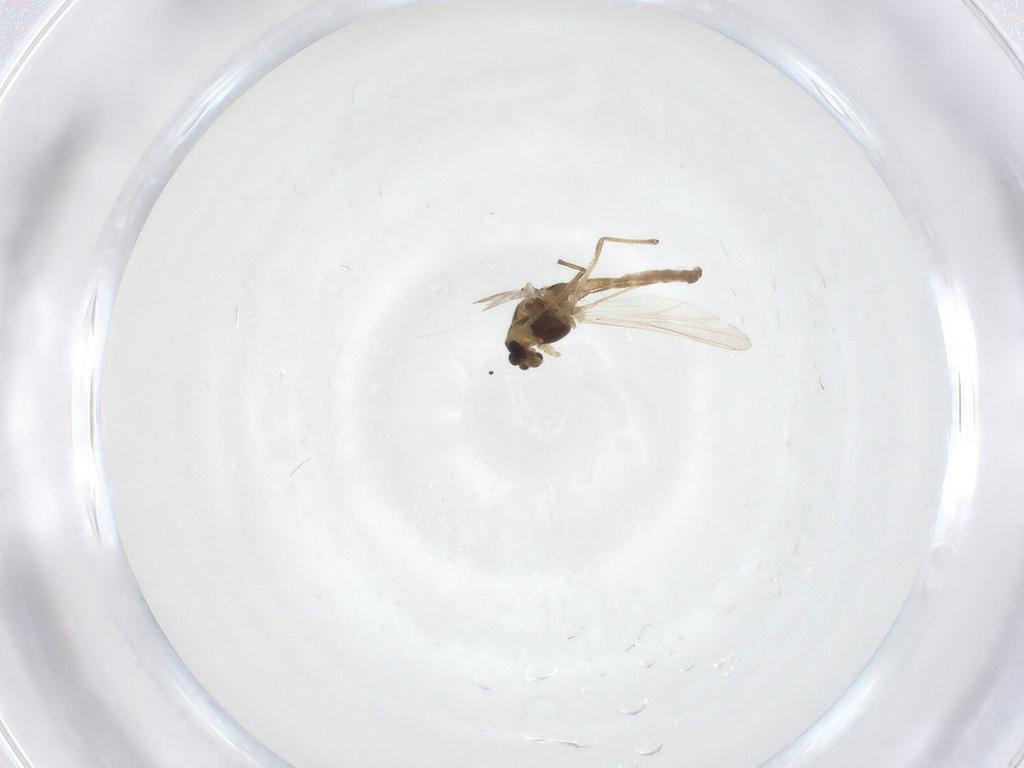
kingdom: Animalia
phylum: Arthropoda
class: Insecta
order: Diptera
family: Chironomidae
